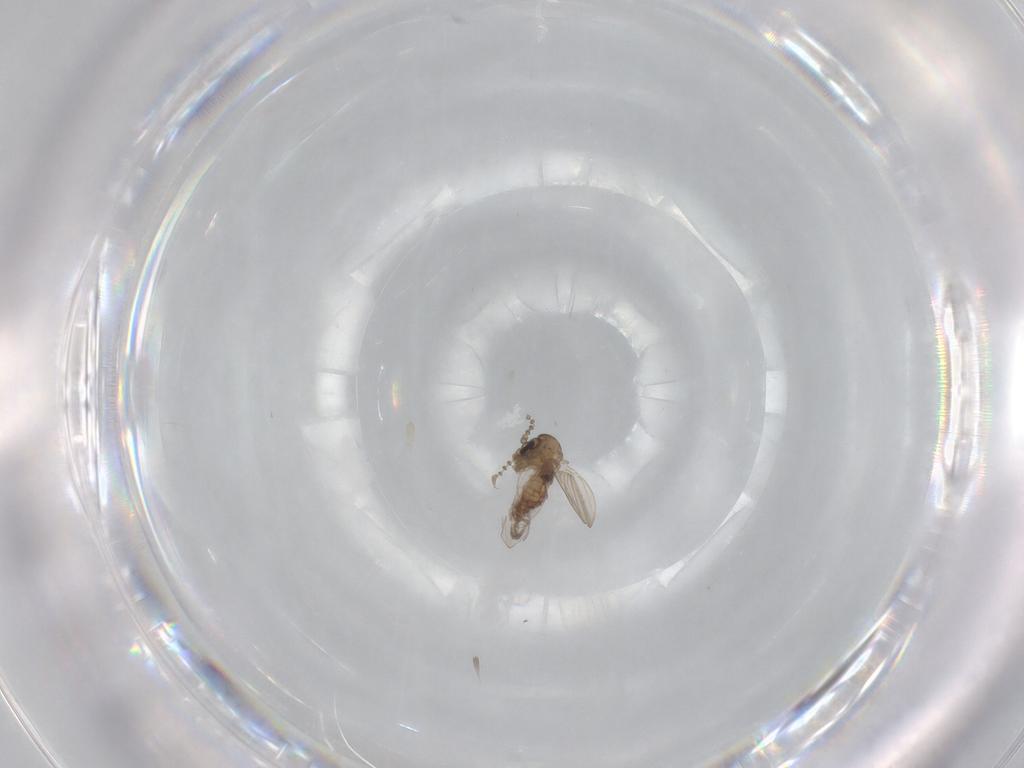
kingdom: Animalia
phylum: Arthropoda
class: Insecta
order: Diptera
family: Psychodidae
